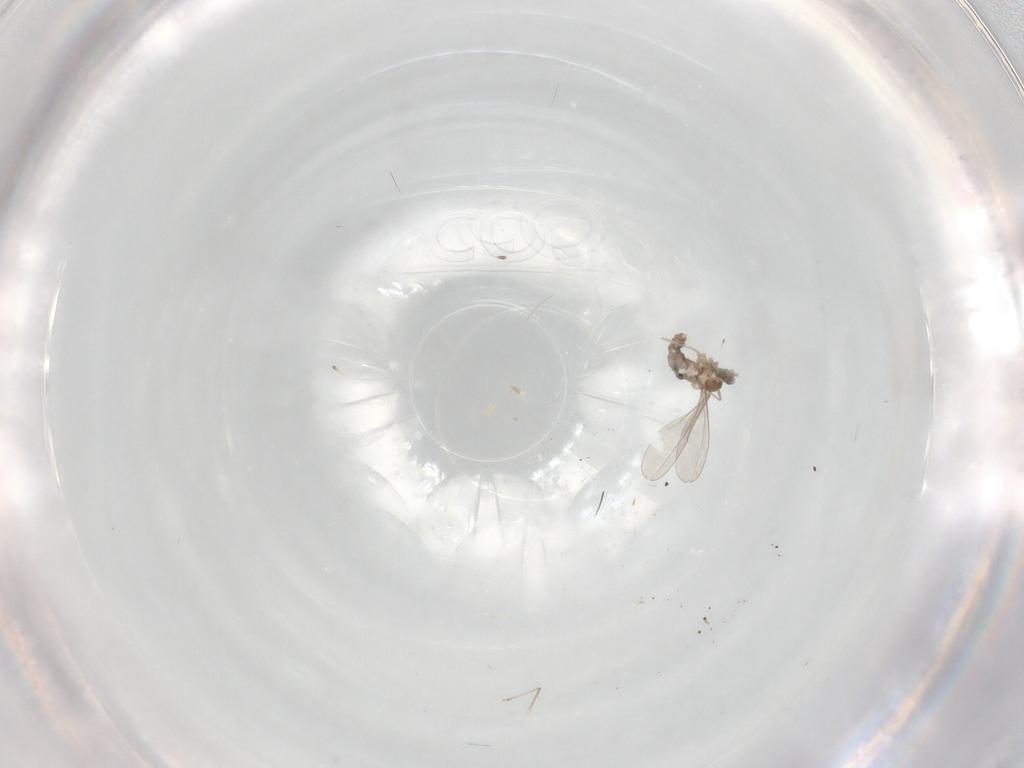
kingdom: Animalia
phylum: Arthropoda
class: Insecta
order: Diptera
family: Cecidomyiidae
